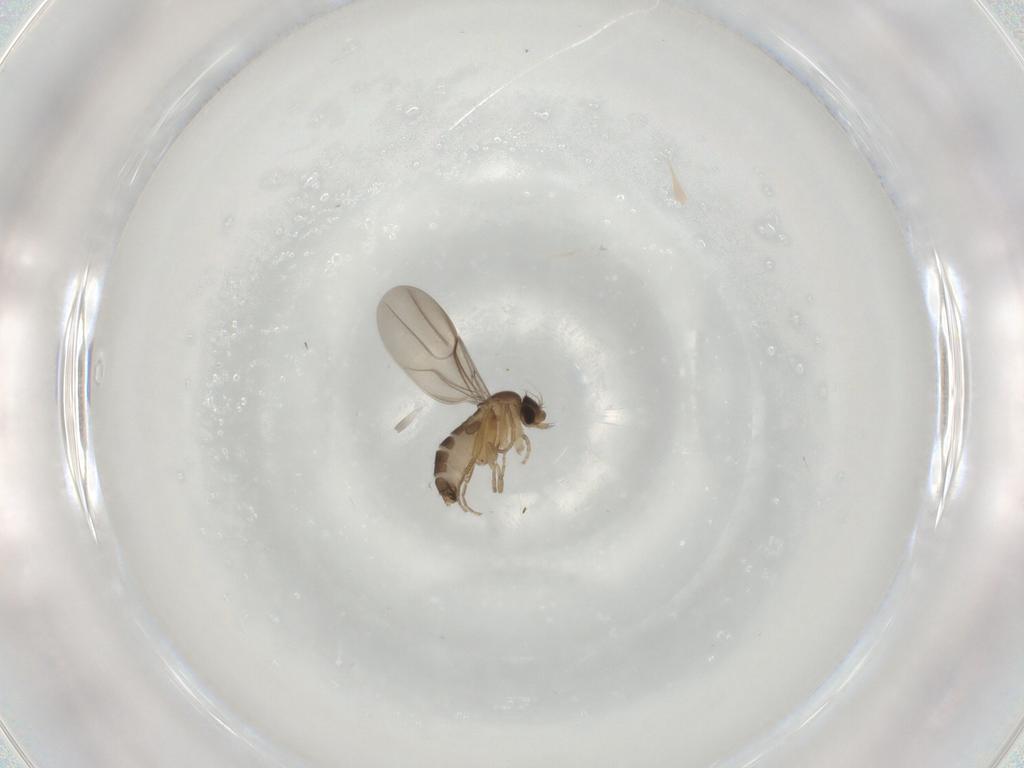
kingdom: Animalia
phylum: Arthropoda
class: Insecta
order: Diptera
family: Phoridae
